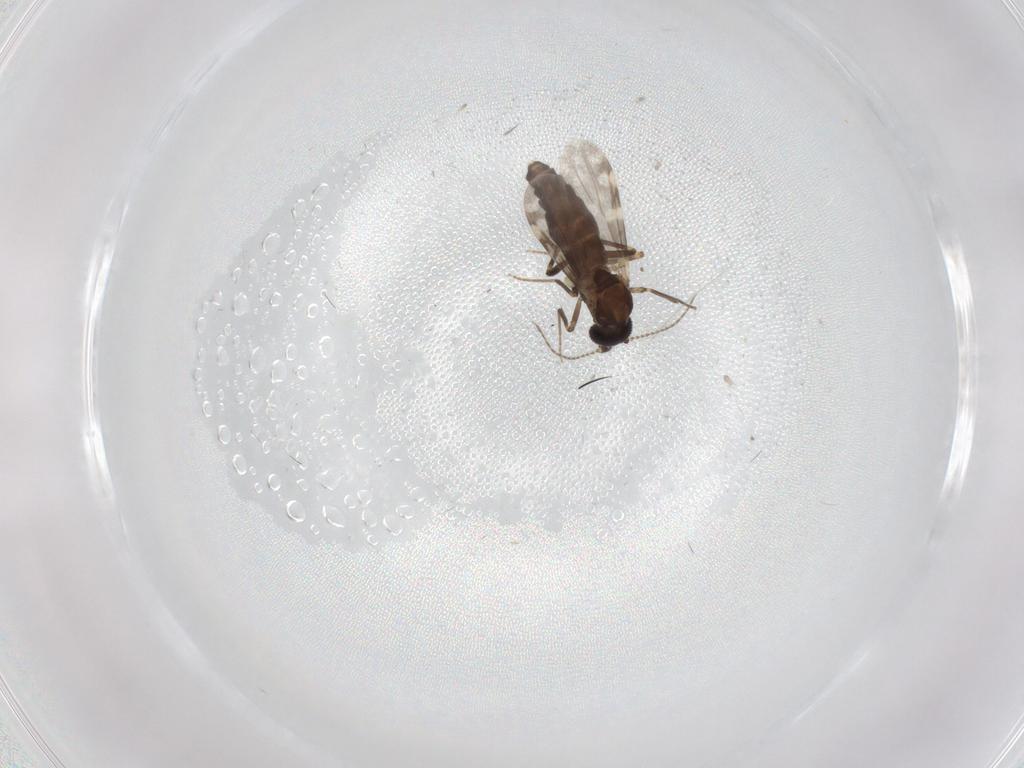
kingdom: Animalia
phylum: Arthropoda
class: Insecta
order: Diptera
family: Ceratopogonidae
